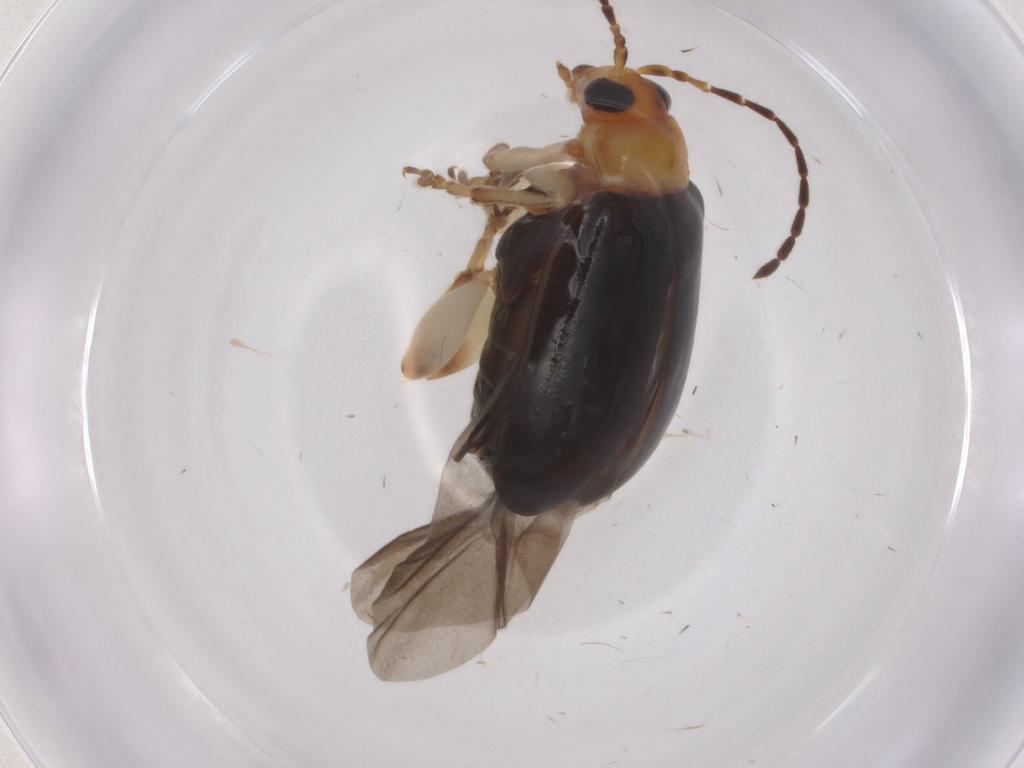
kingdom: Animalia
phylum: Arthropoda
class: Insecta
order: Coleoptera
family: Chrysomelidae
